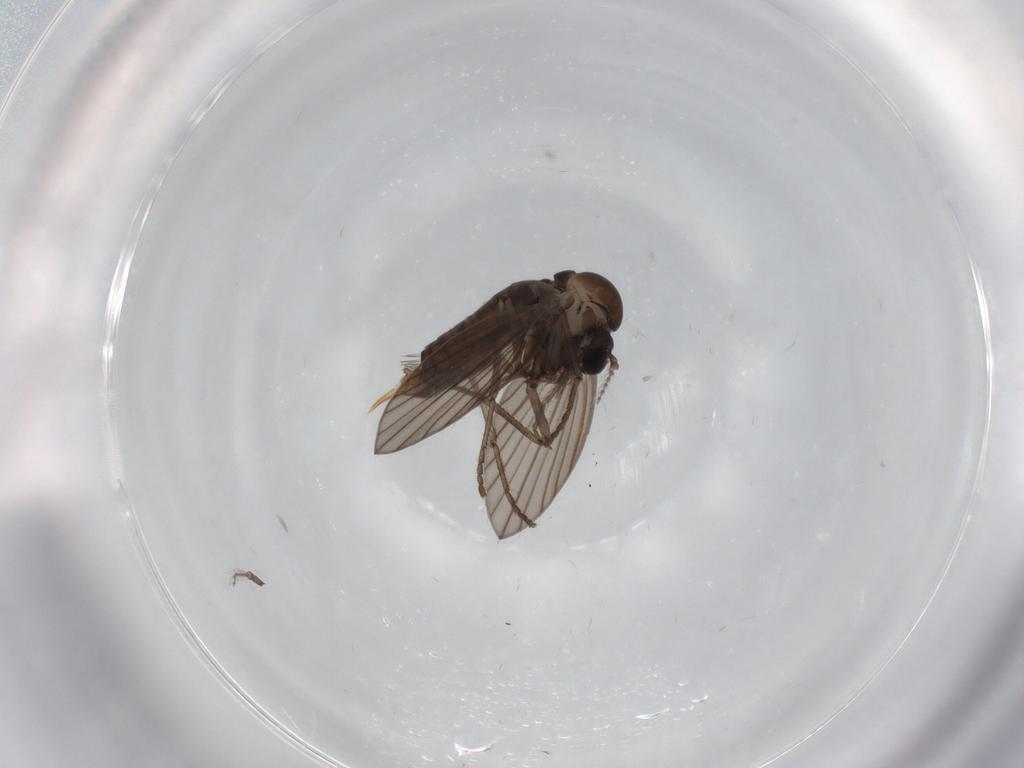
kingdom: Animalia
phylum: Arthropoda
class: Insecta
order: Diptera
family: Cecidomyiidae
